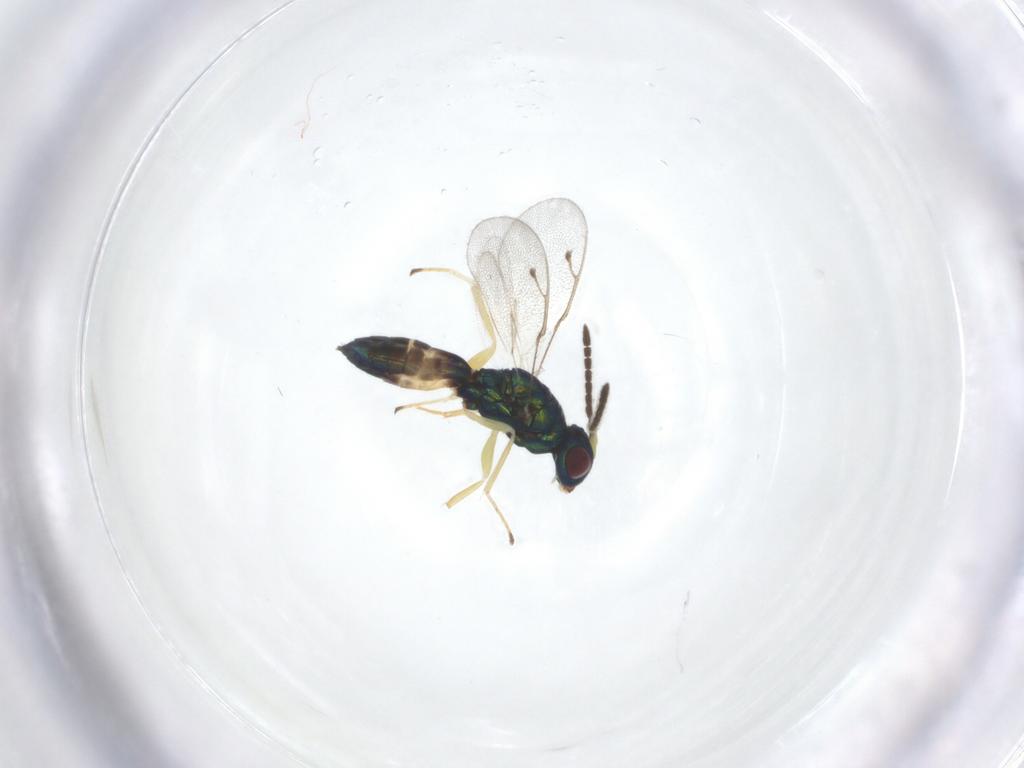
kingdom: Animalia
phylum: Arthropoda
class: Insecta
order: Hymenoptera
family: Pteromalidae
